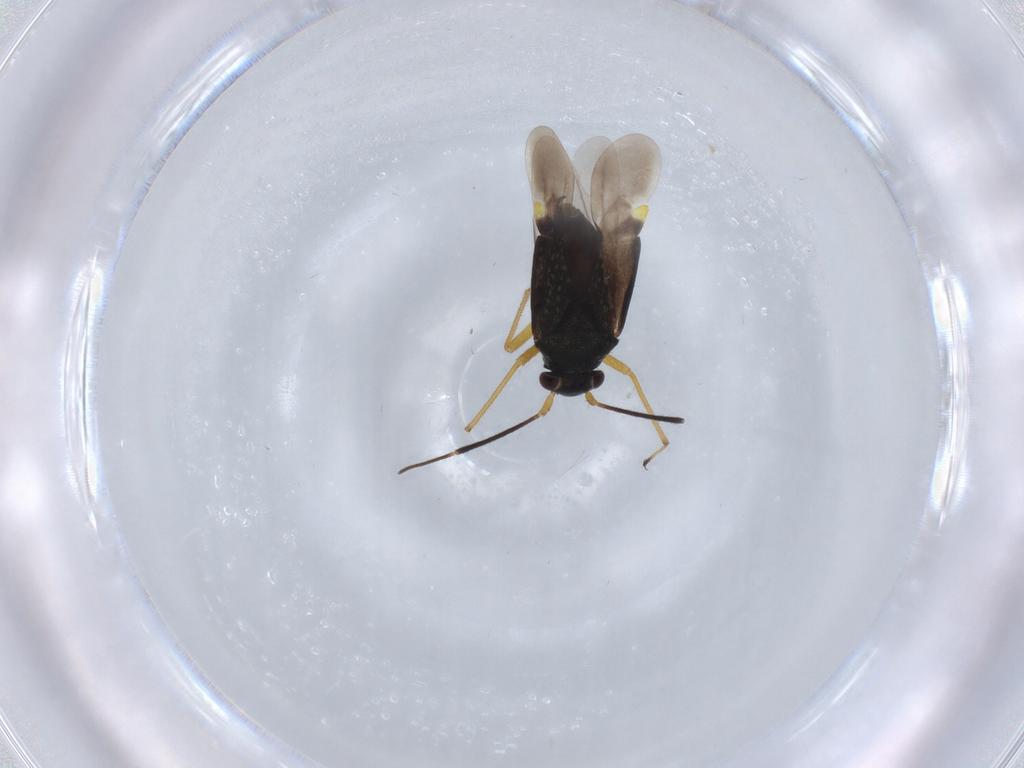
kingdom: Animalia
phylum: Arthropoda
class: Insecta
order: Hemiptera
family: Miridae
